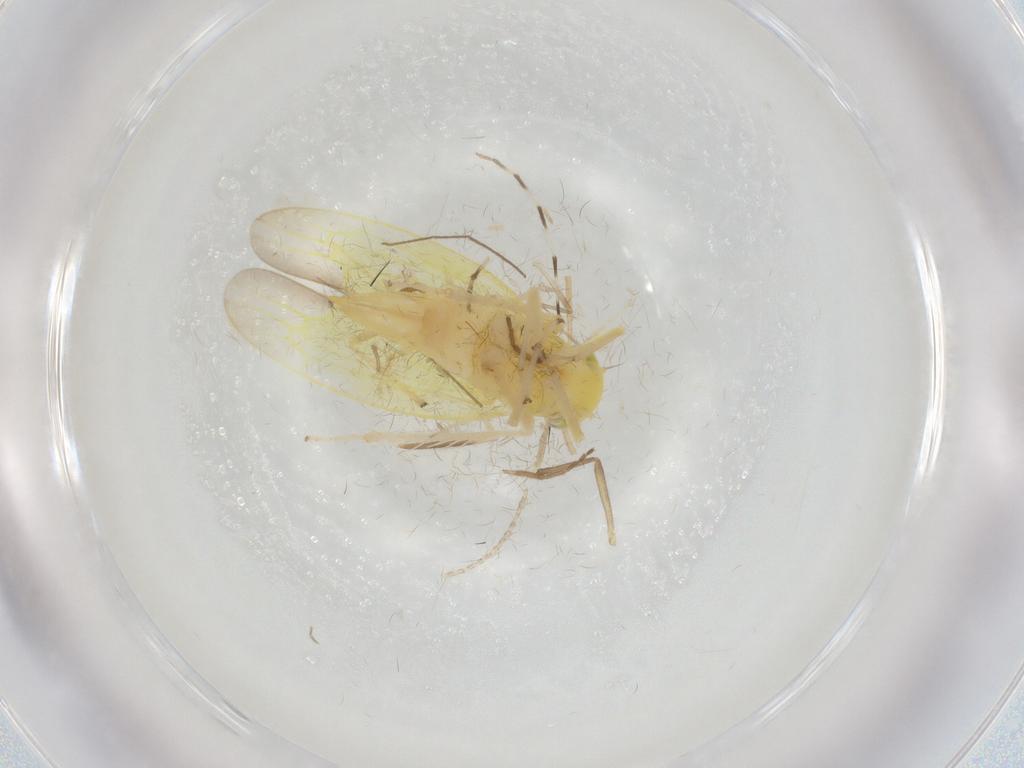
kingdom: Animalia
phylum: Arthropoda
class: Insecta
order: Hemiptera
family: Cicadellidae
